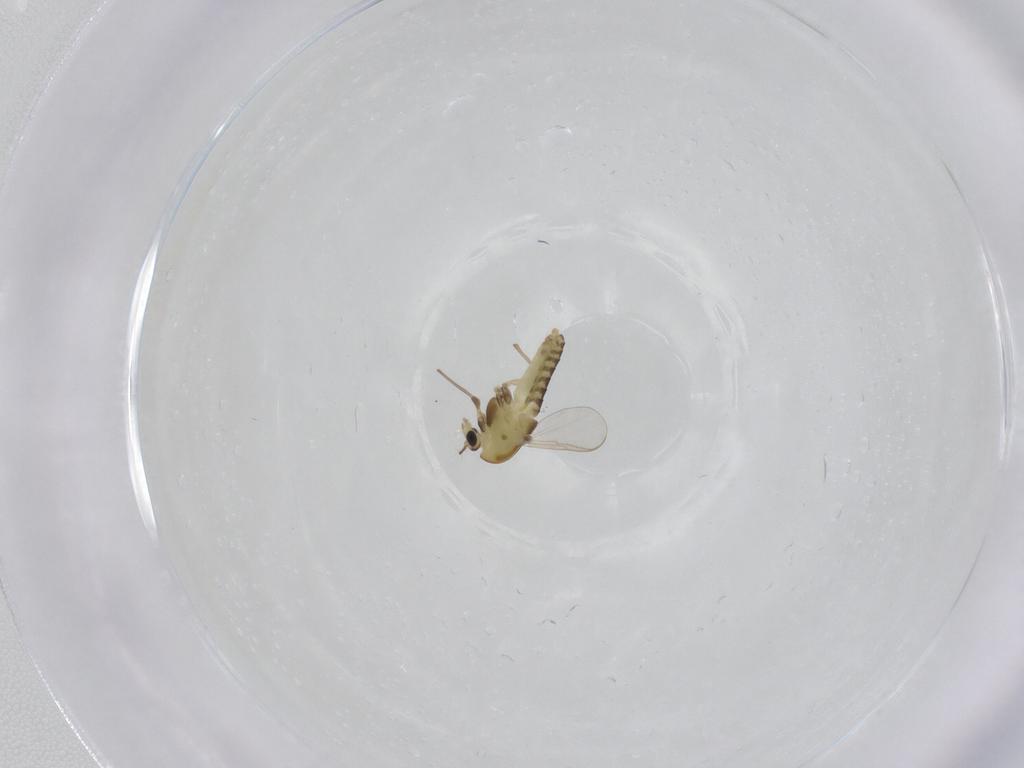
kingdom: Animalia
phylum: Arthropoda
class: Insecta
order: Diptera
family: Chironomidae
